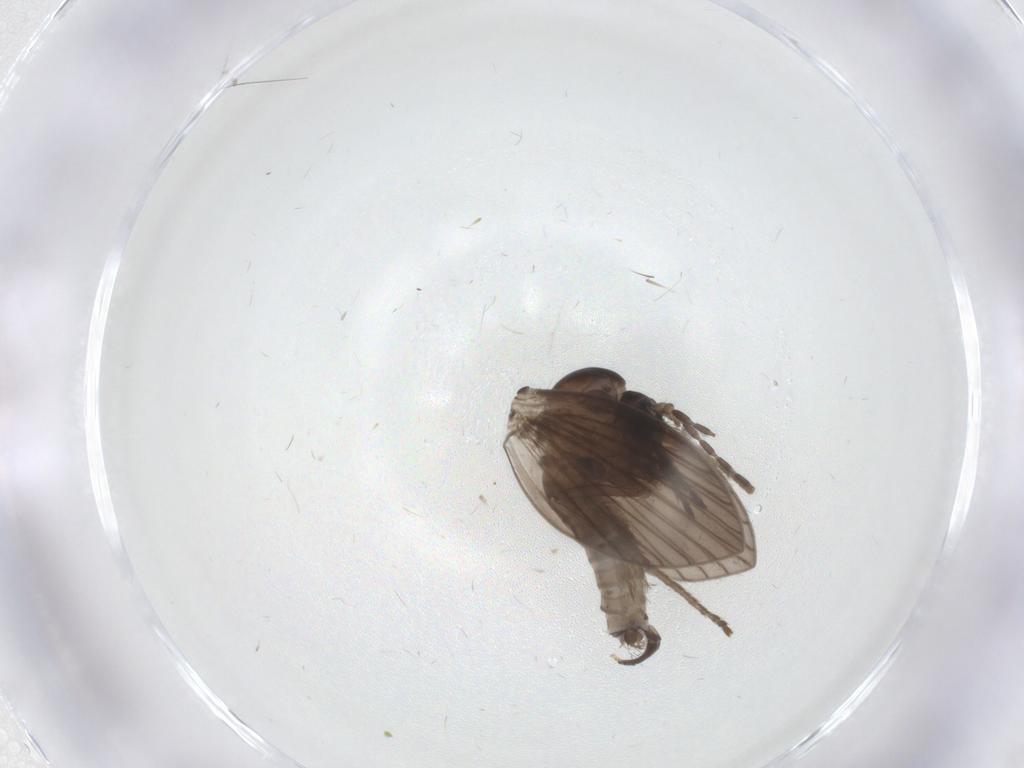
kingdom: Animalia
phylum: Arthropoda
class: Insecta
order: Diptera
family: Psychodidae
